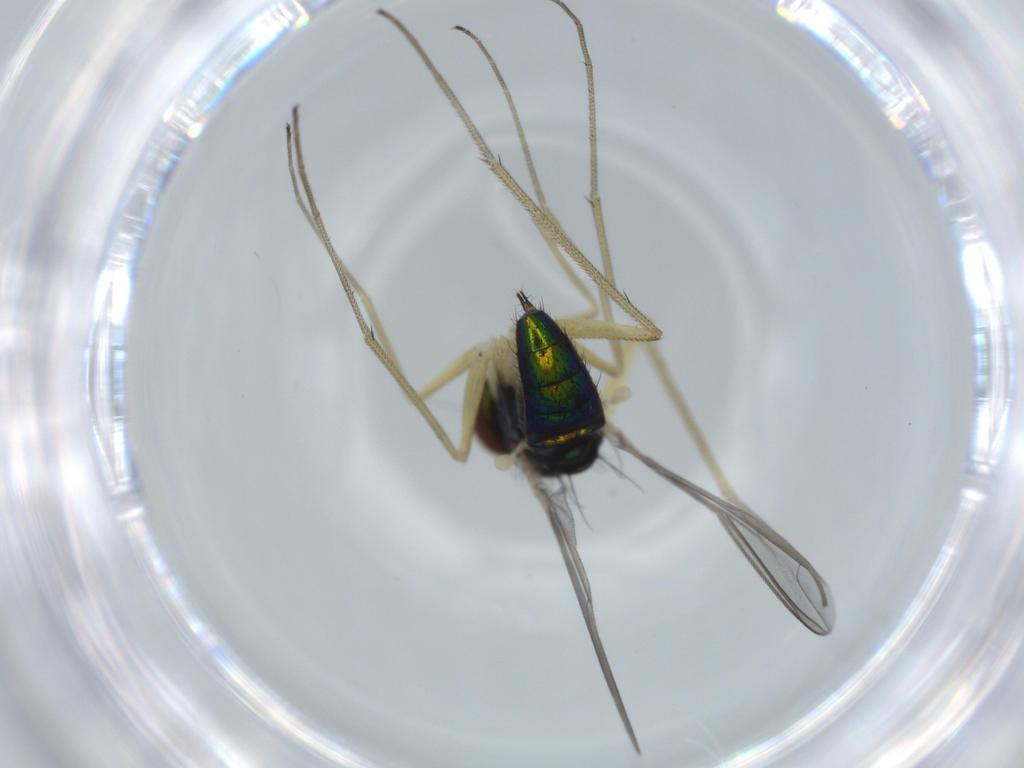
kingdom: Animalia
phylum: Arthropoda
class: Insecta
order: Diptera
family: Dolichopodidae
